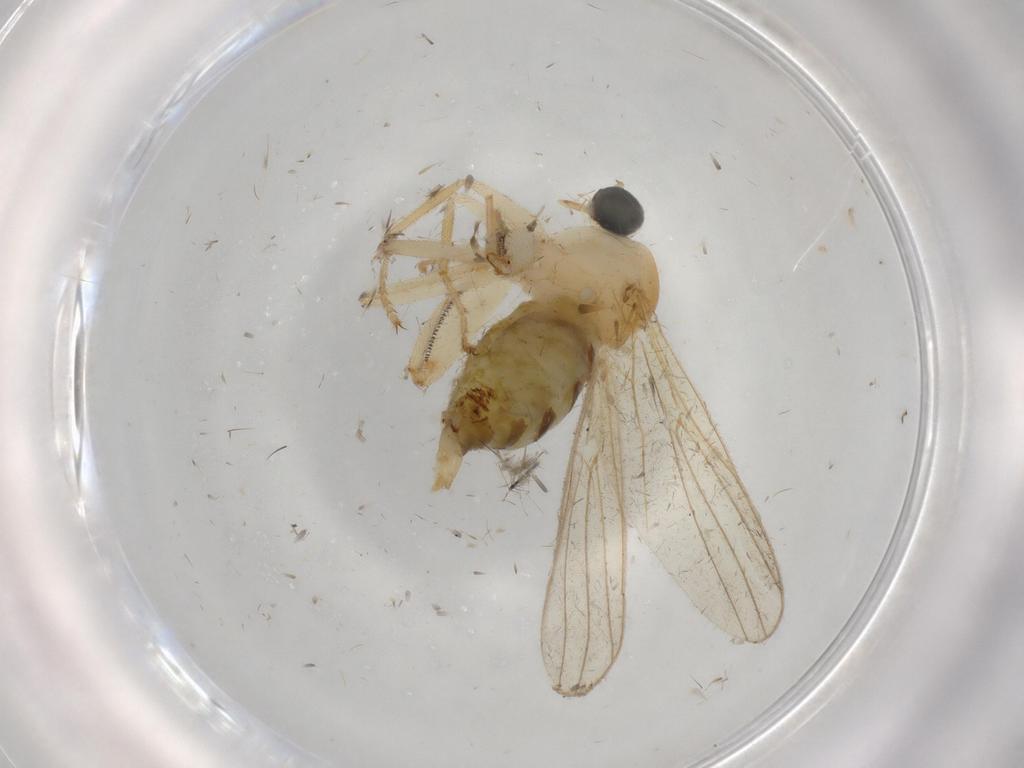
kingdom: Animalia
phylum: Arthropoda
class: Insecta
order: Diptera
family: Hybotidae
